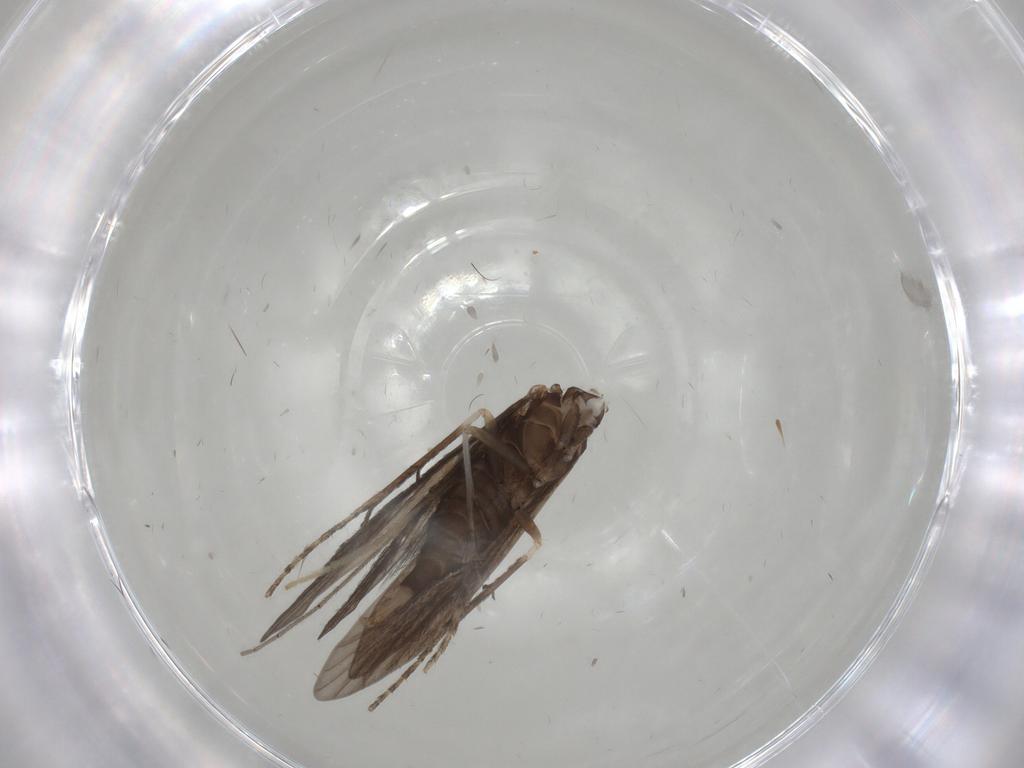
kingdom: Animalia
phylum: Arthropoda
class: Insecta
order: Trichoptera
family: Xiphocentronidae
